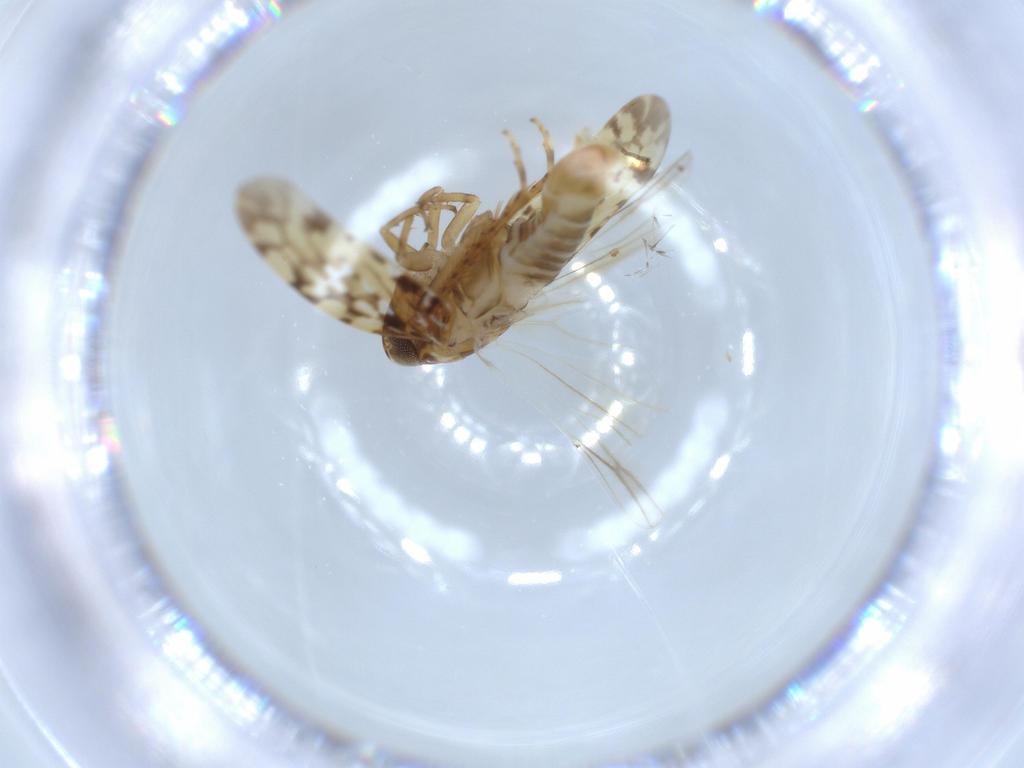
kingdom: Animalia
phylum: Arthropoda
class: Insecta
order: Hemiptera
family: Cicadellidae
